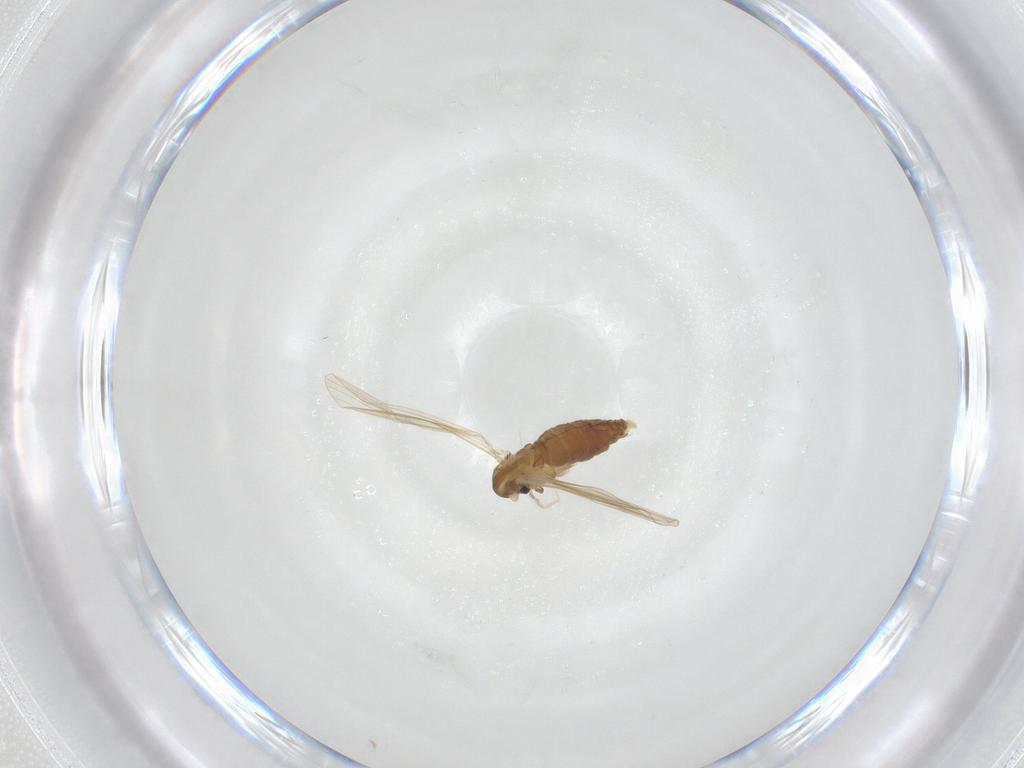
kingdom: Animalia
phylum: Arthropoda
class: Insecta
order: Diptera
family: Psychodidae
